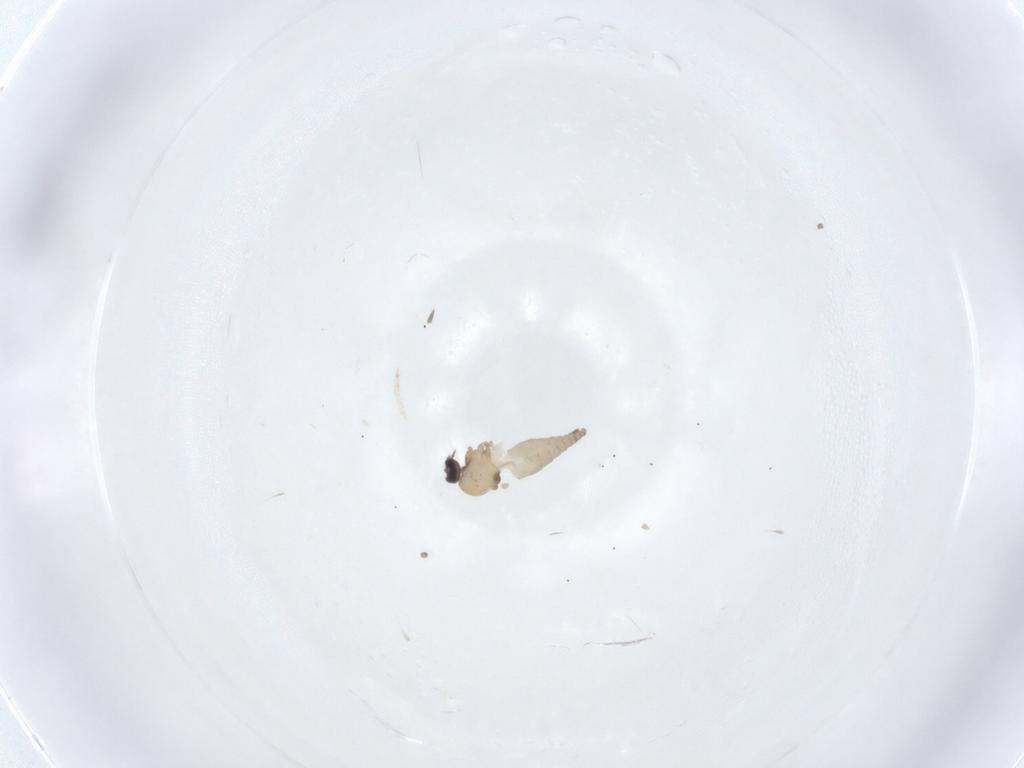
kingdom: Animalia
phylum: Arthropoda
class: Insecta
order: Diptera
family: Ceratopogonidae
